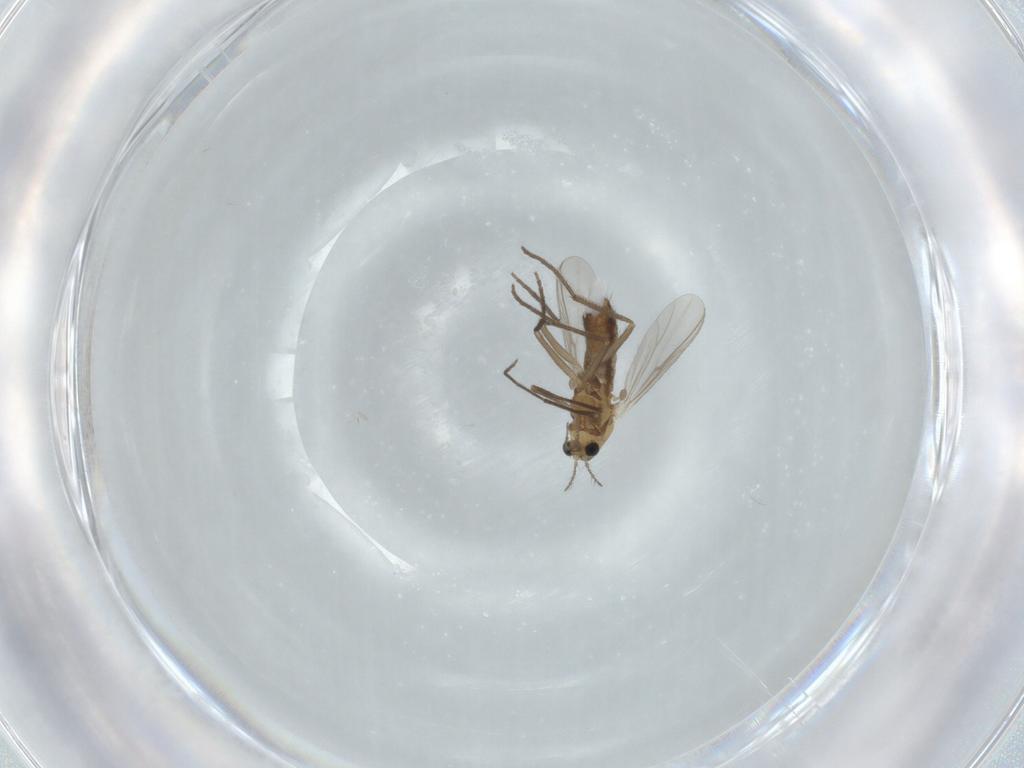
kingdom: Animalia
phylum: Arthropoda
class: Insecta
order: Diptera
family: Chironomidae
